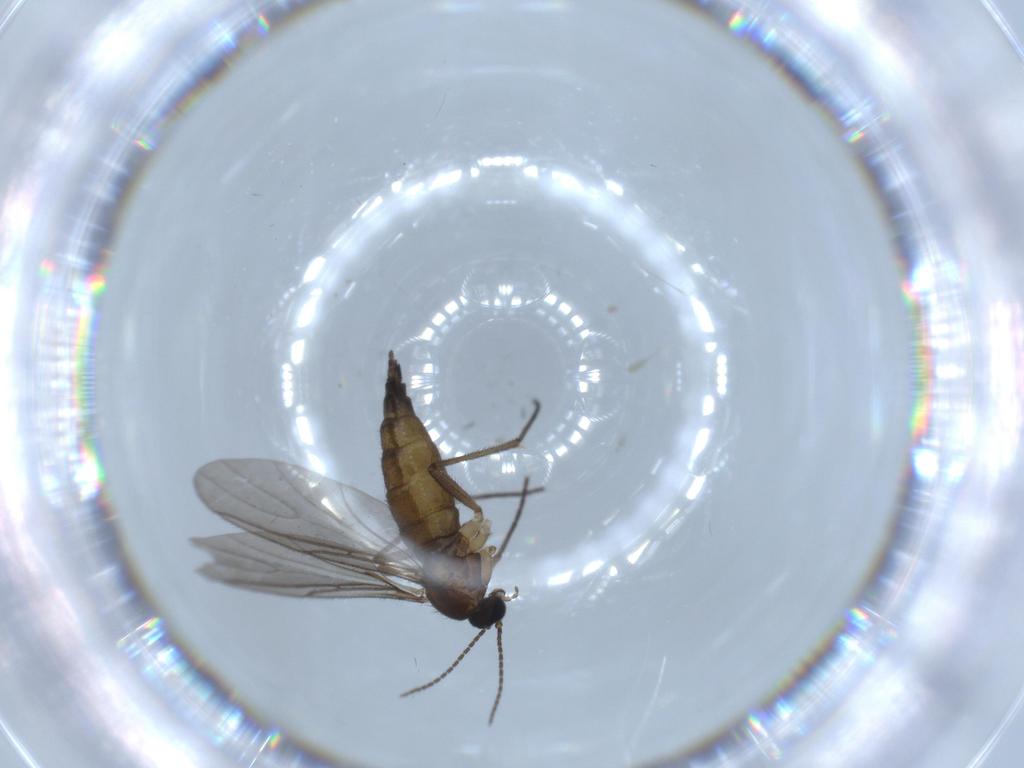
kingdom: Animalia
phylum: Arthropoda
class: Insecta
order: Diptera
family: Sciaridae
